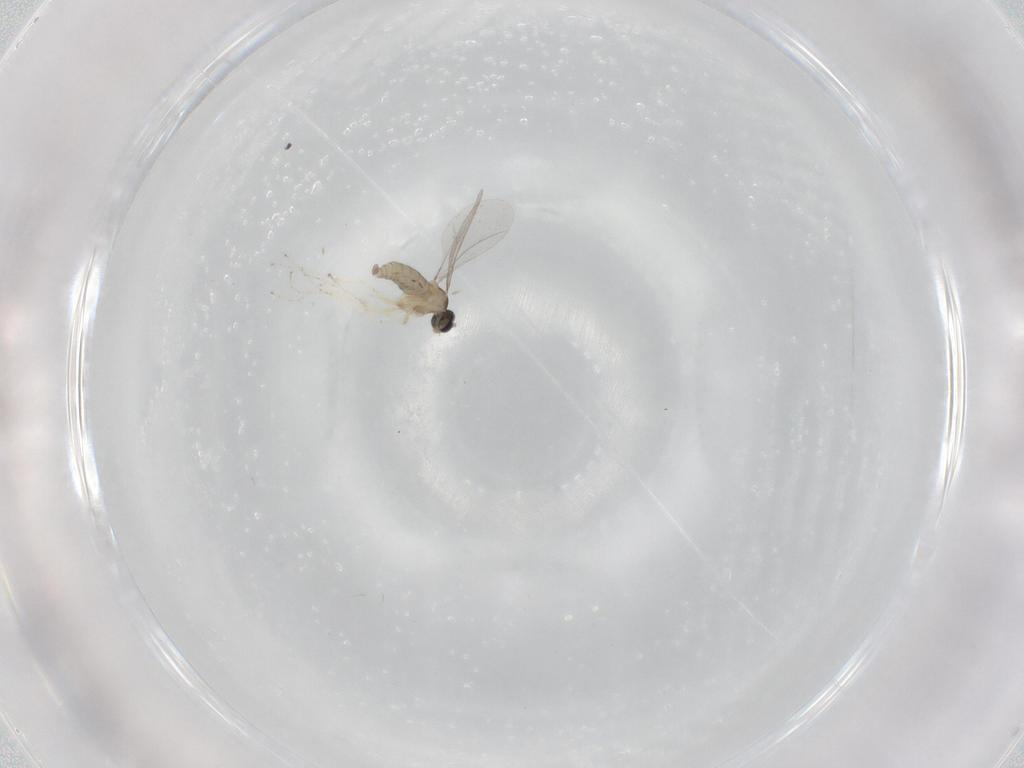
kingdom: Animalia
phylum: Arthropoda
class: Insecta
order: Diptera
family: Cecidomyiidae
